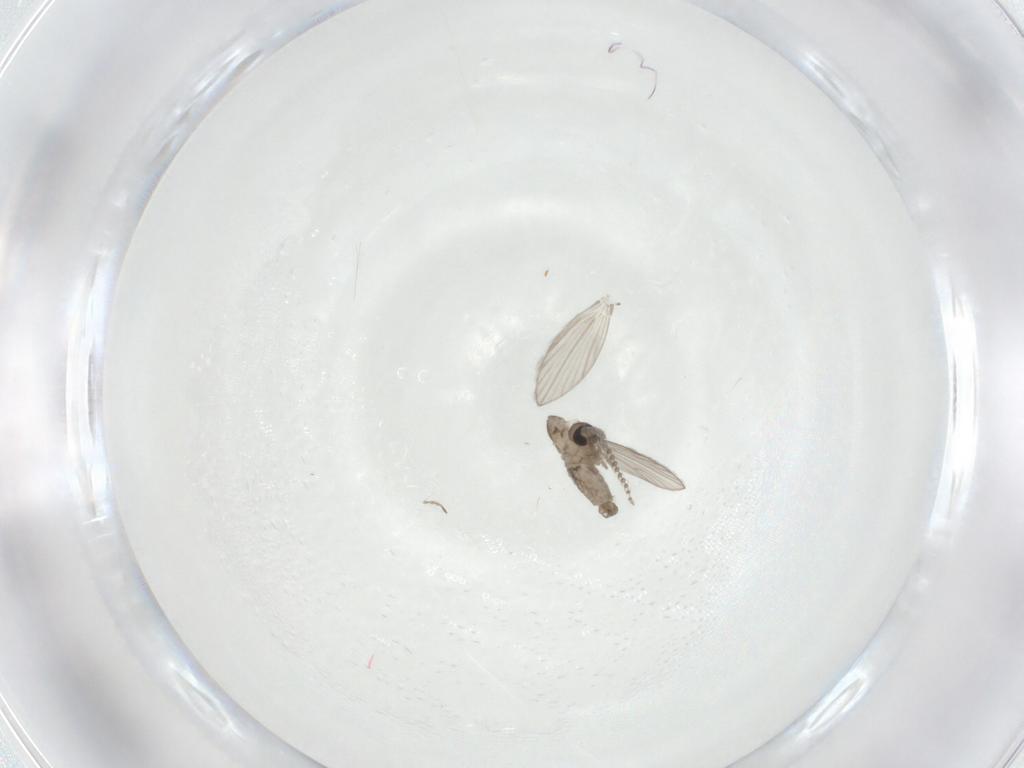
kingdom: Animalia
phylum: Arthropoda
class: Insecta
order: Diptera
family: Psychodidae
